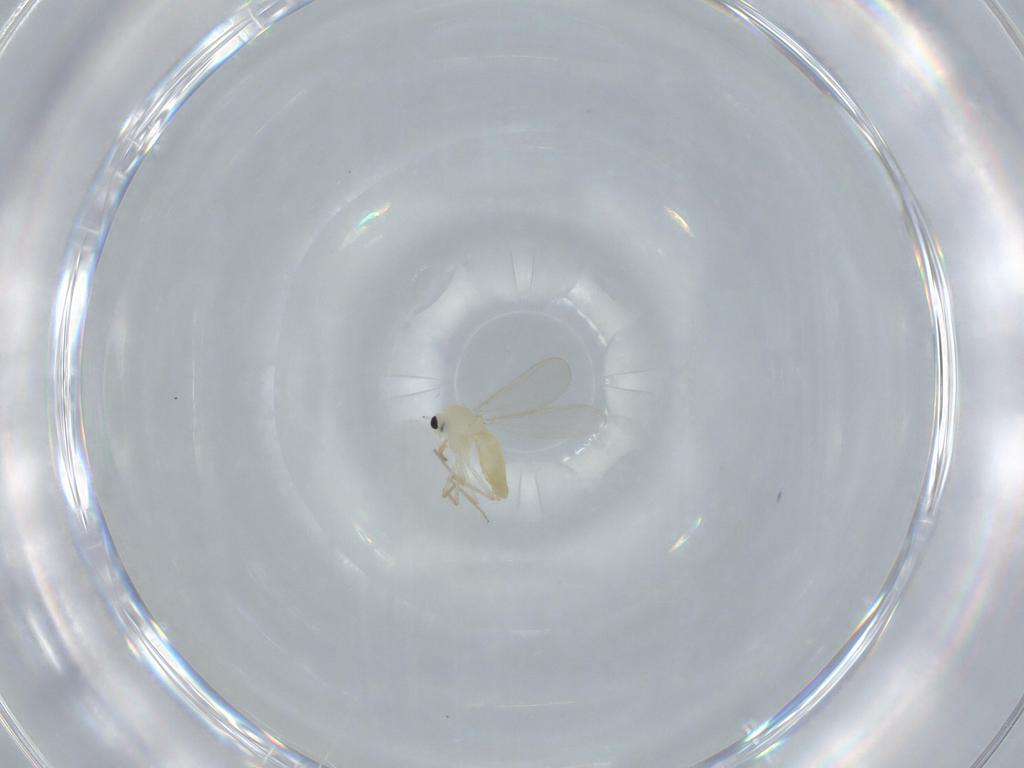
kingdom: Animalia
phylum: Arthropoda
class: Insecta
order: Diptera
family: Chironomidae
